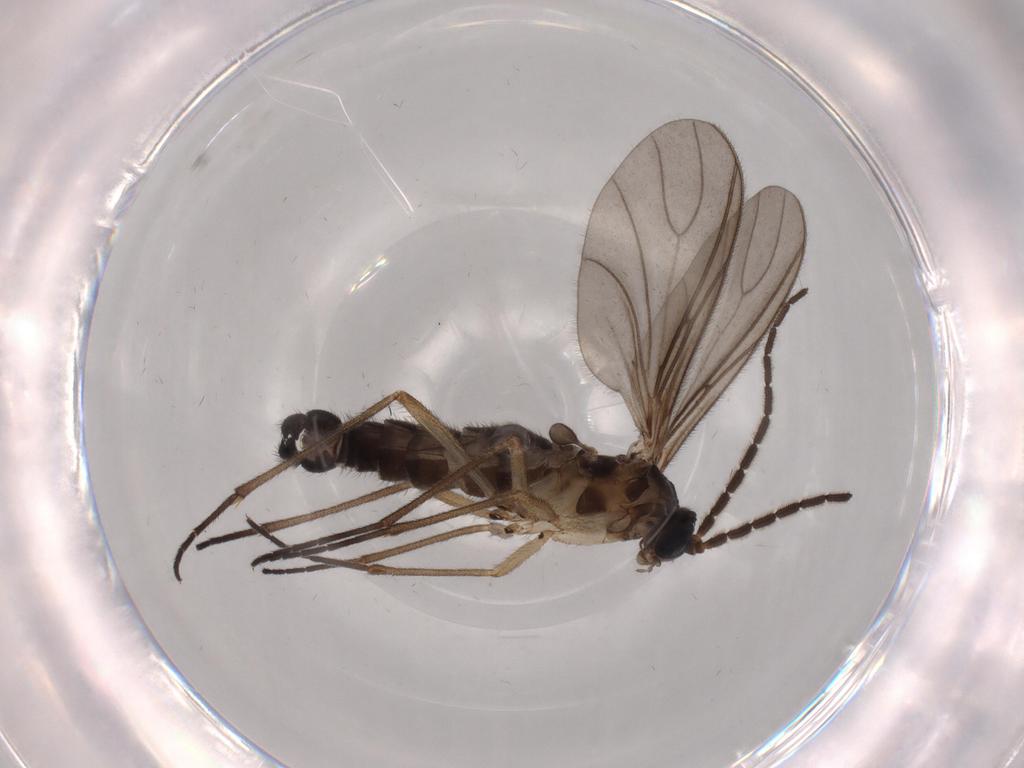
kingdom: Animalia
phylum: Arthropoda
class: Insecta
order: Diptera
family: Sciaridae
